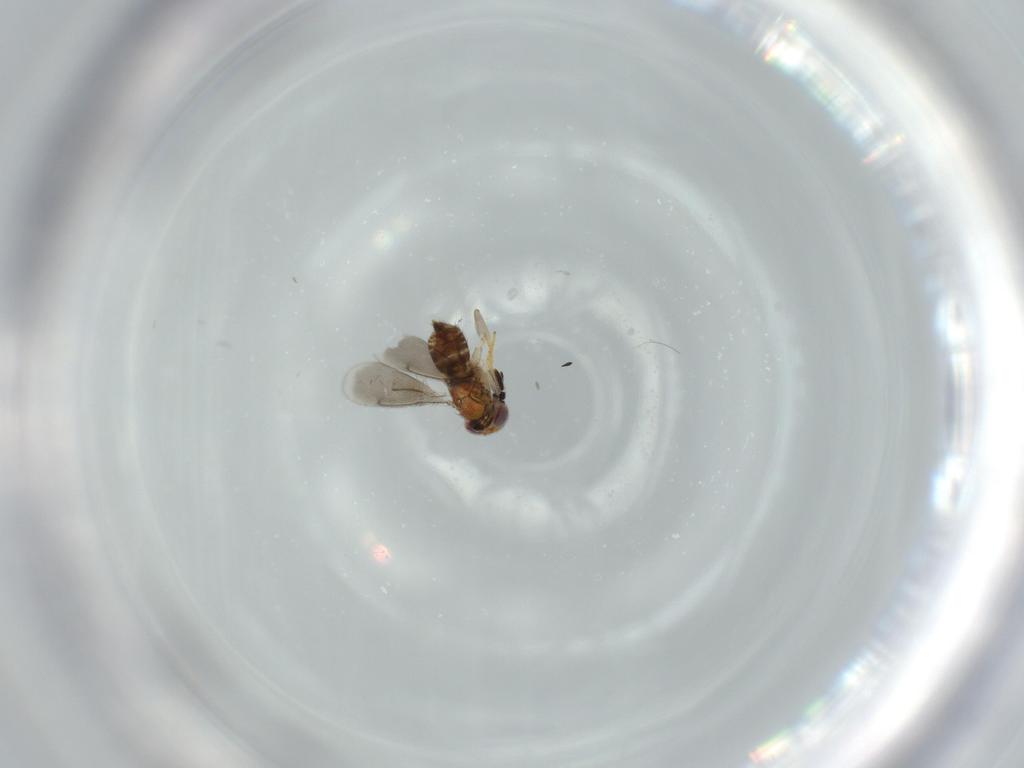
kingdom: Animalia
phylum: Arthropoda
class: Insecta
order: Hymenoptera
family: Aphelinidae
